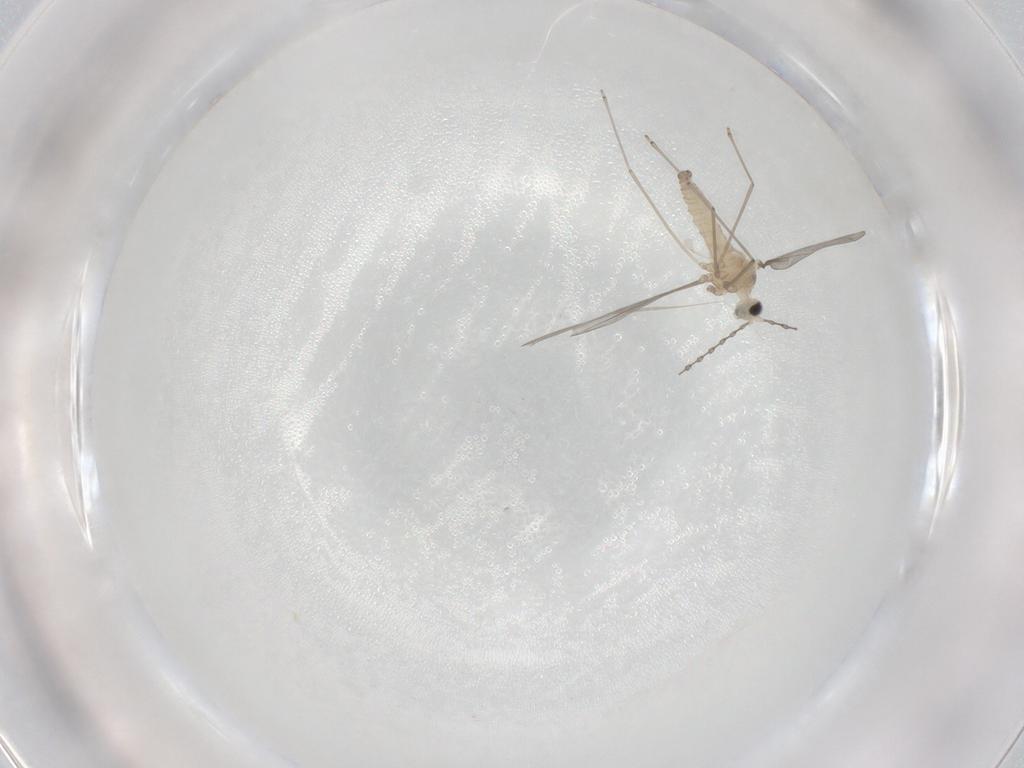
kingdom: Animalia
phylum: Arthropoda
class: Insecta
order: Diptera
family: Cecidomyiidae
